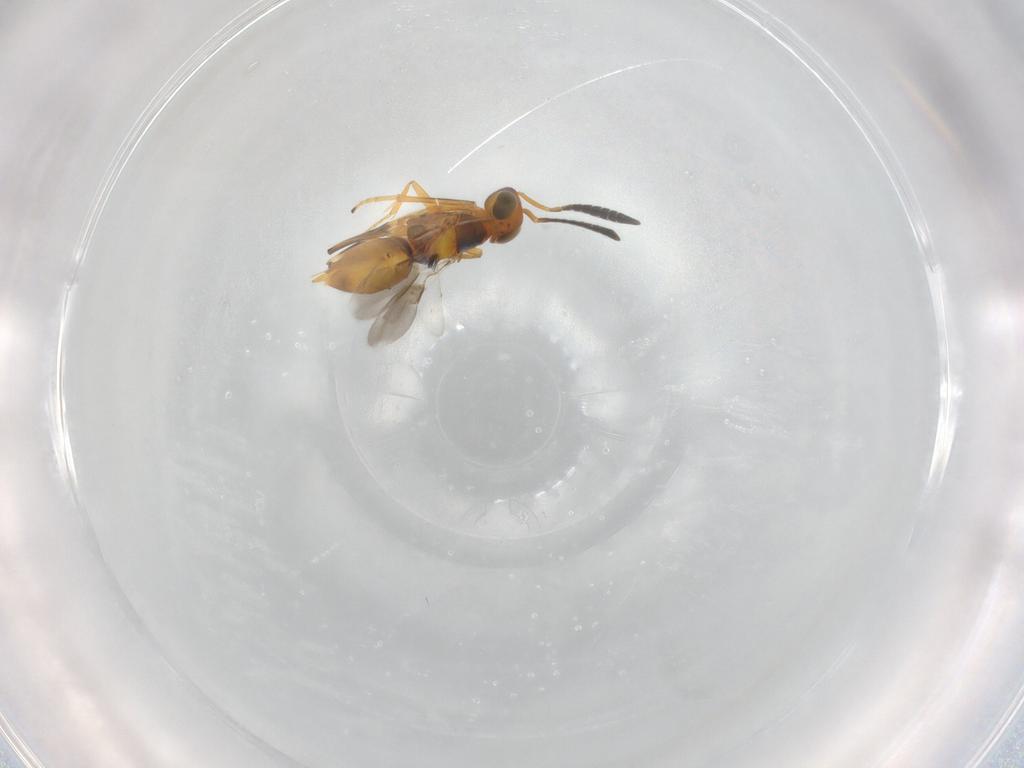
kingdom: Animalia
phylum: Arthropoda
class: Insecta
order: Hymenoptera
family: Encyrtidae
